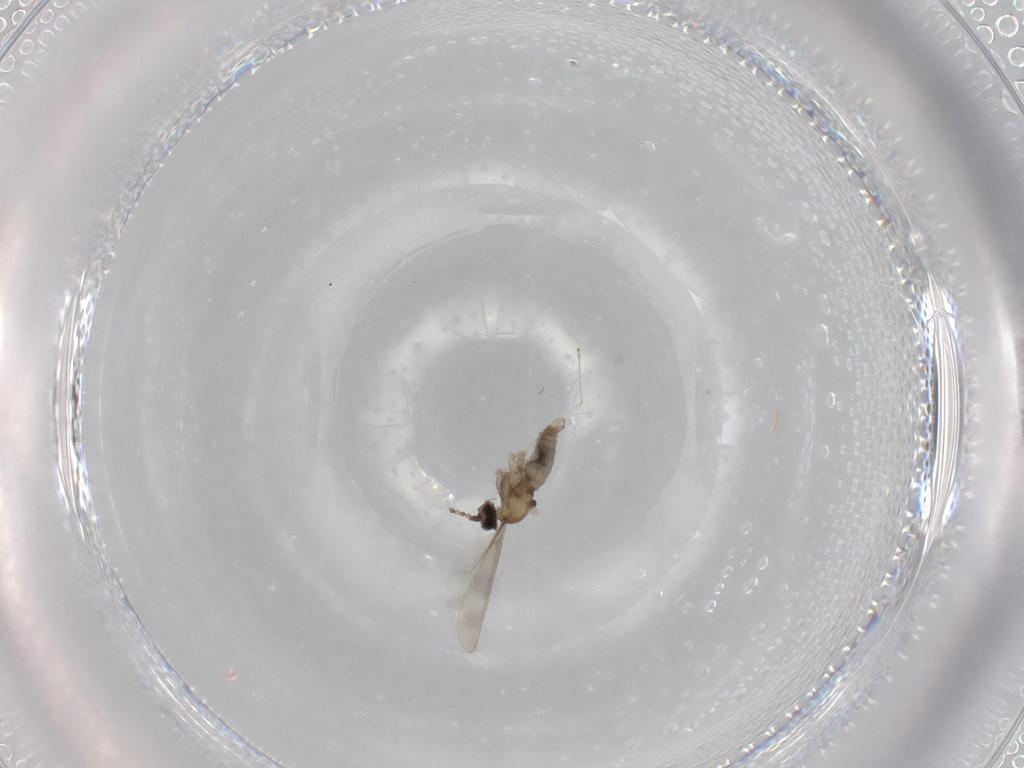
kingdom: Animalia
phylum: Arthropoda
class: Insecta
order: Diptera
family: Cecidomyiidae
